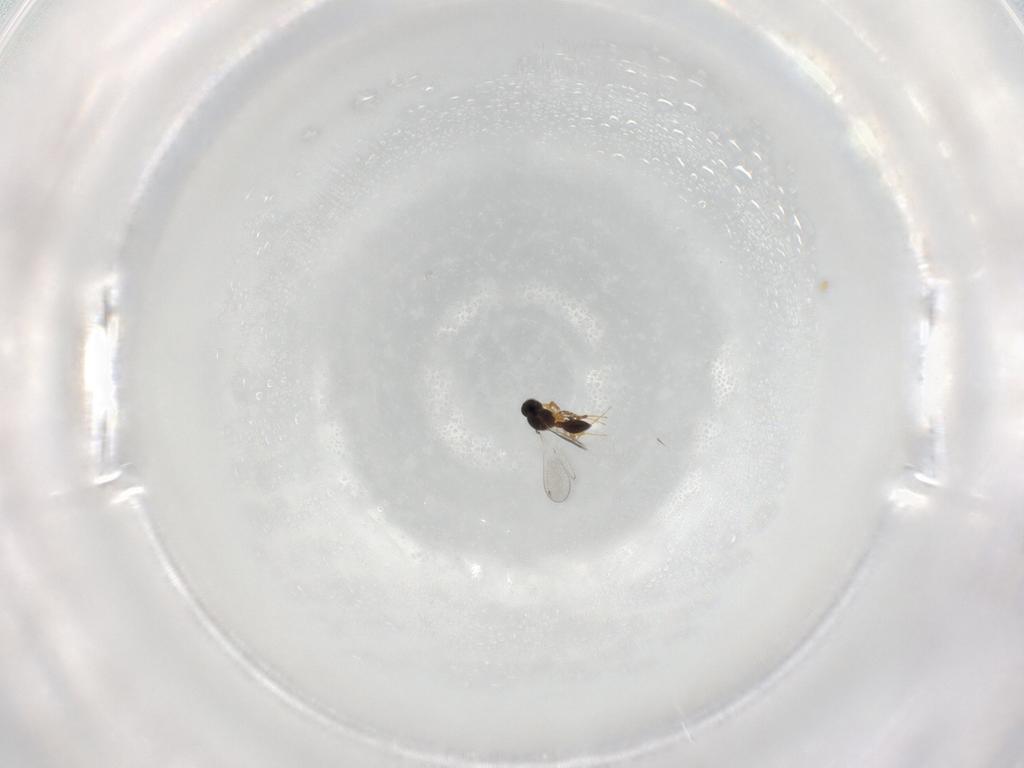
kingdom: Animalia
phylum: Arthropoda
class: Insecta
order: Hymenoptera
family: Platygastridae
